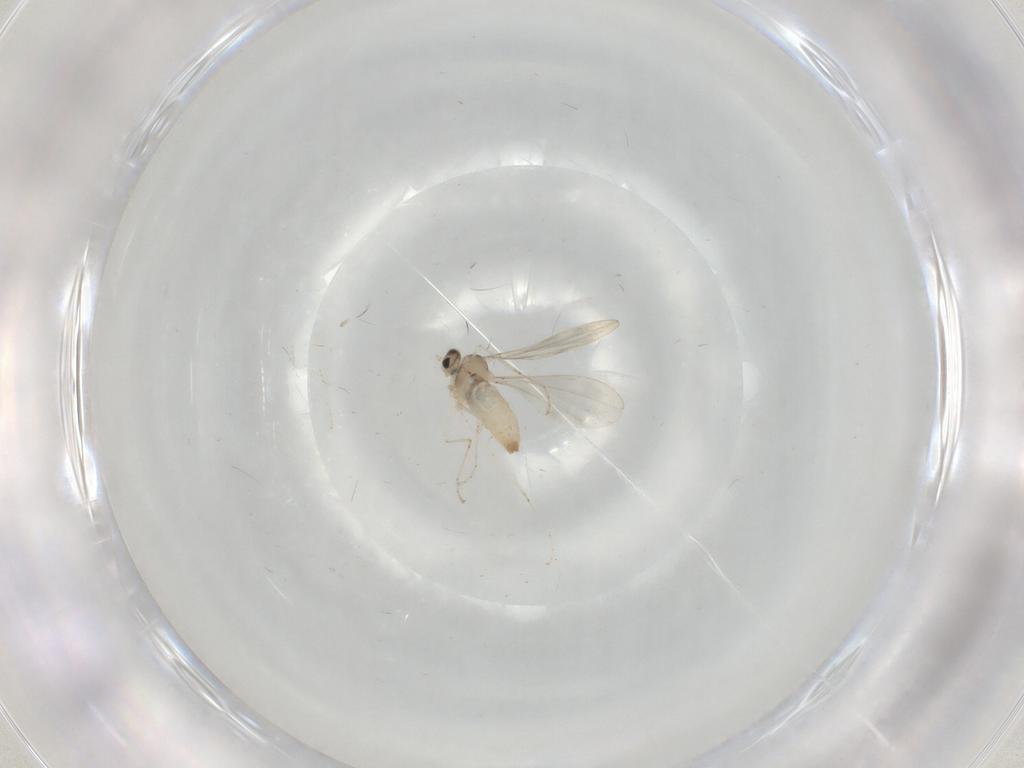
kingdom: Animalia
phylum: Arthropoda
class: Insecta
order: Diptera
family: Cecidomyiidae
